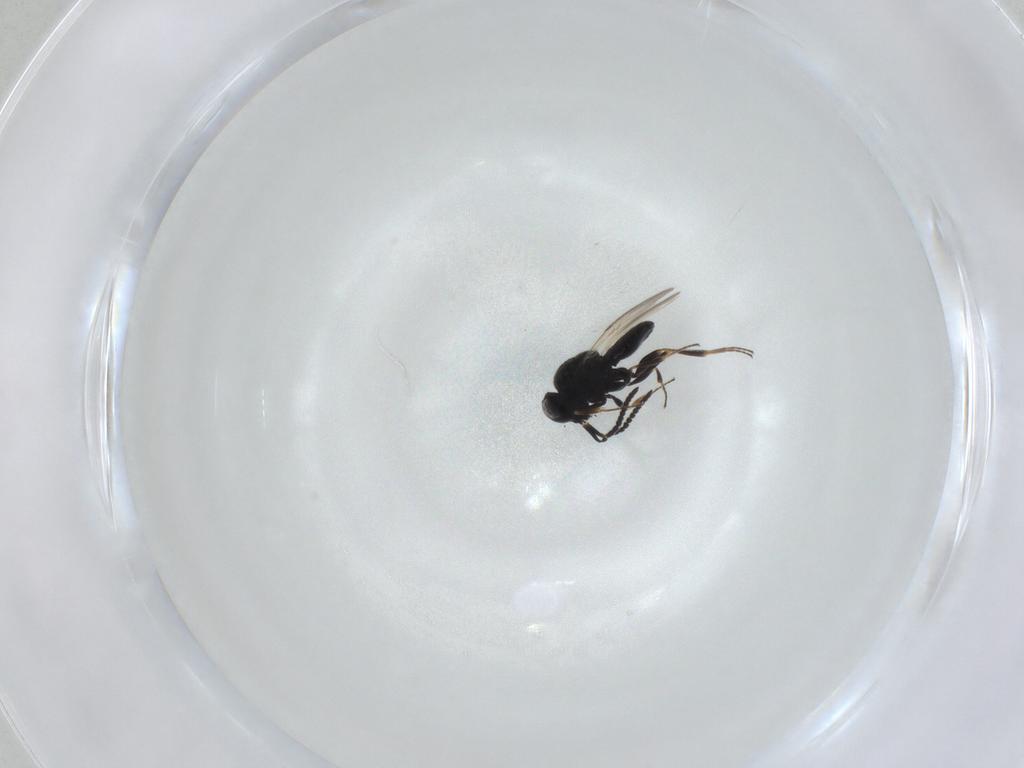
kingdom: Animalia
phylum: Arthropoda
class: Insecta
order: Hymenoptera
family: Scelionidae
